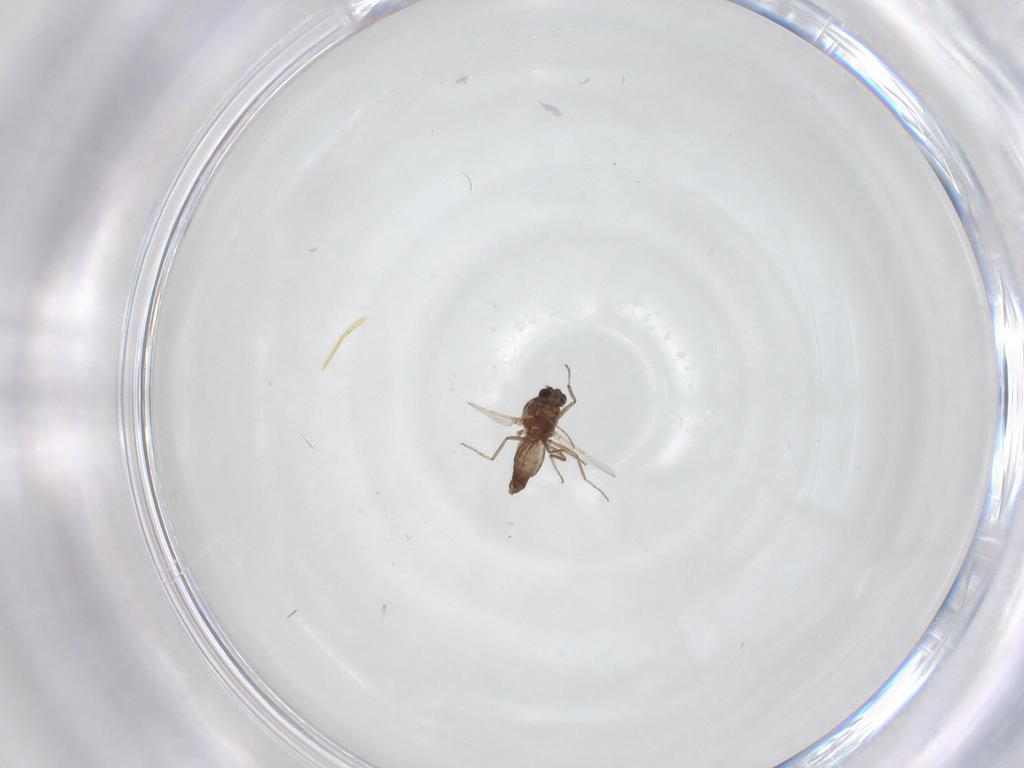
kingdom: Animalia
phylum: Arthropoda
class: Insecta
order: Diptera
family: Ceratopogonidae
